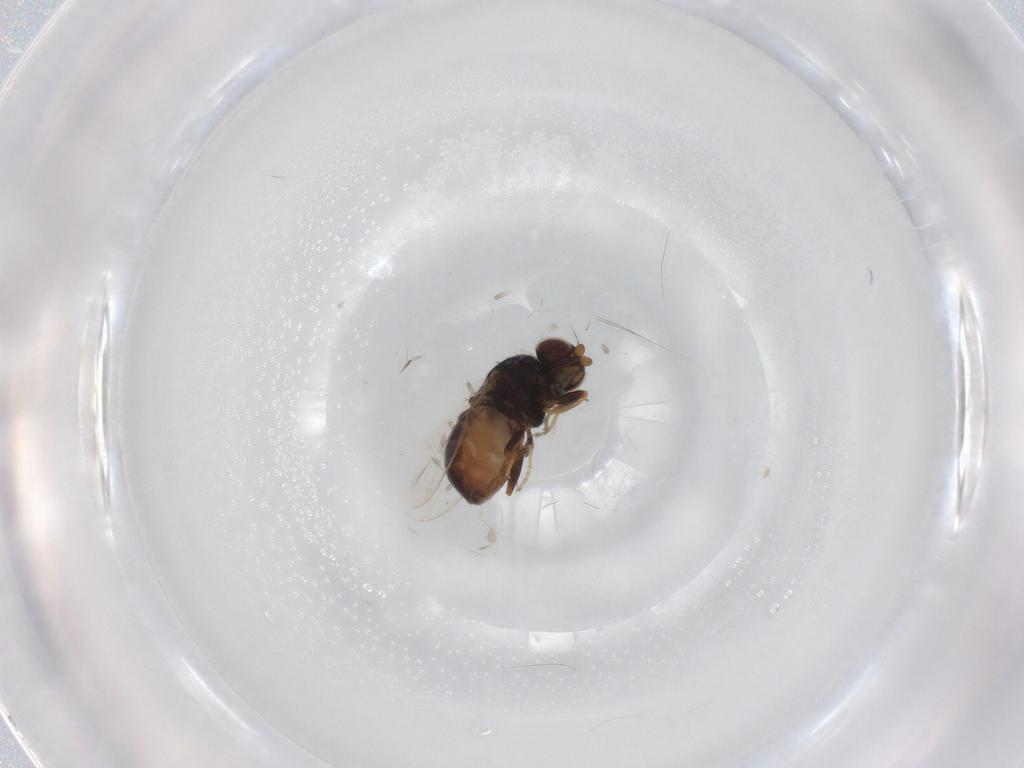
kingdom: Animalia
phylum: Arthropoda
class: Insecta
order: Diptera
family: Chloropidae
